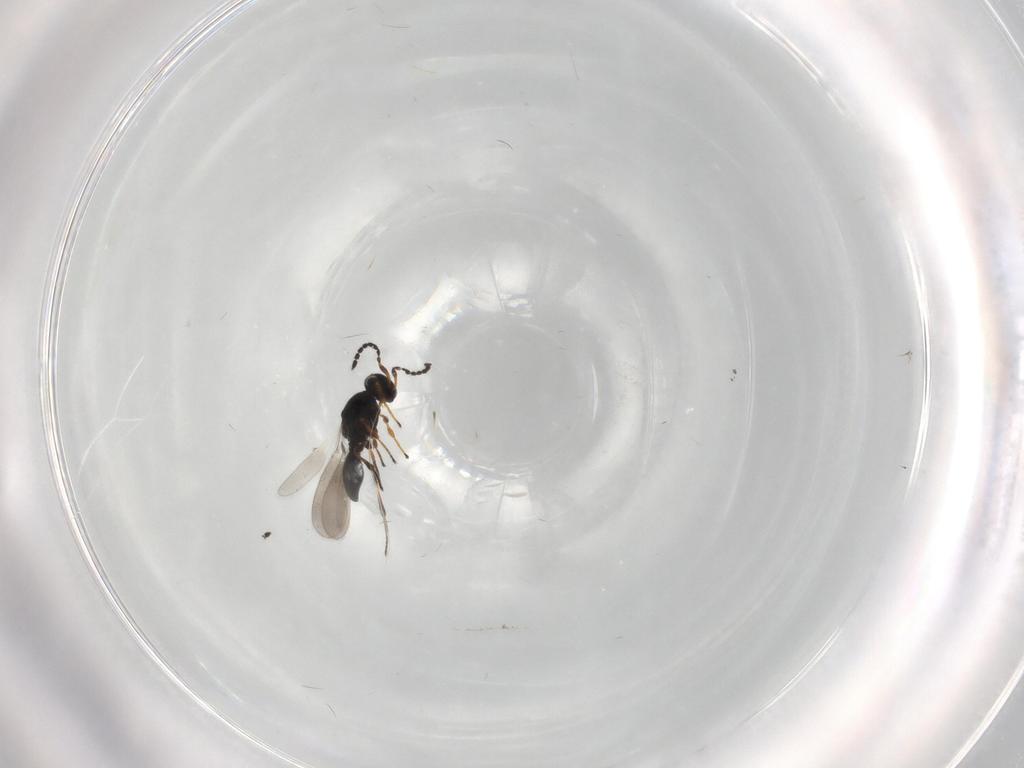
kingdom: Animalia
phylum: Arthropoda
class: Insecta
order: Hymenoptera
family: Platygastridae
